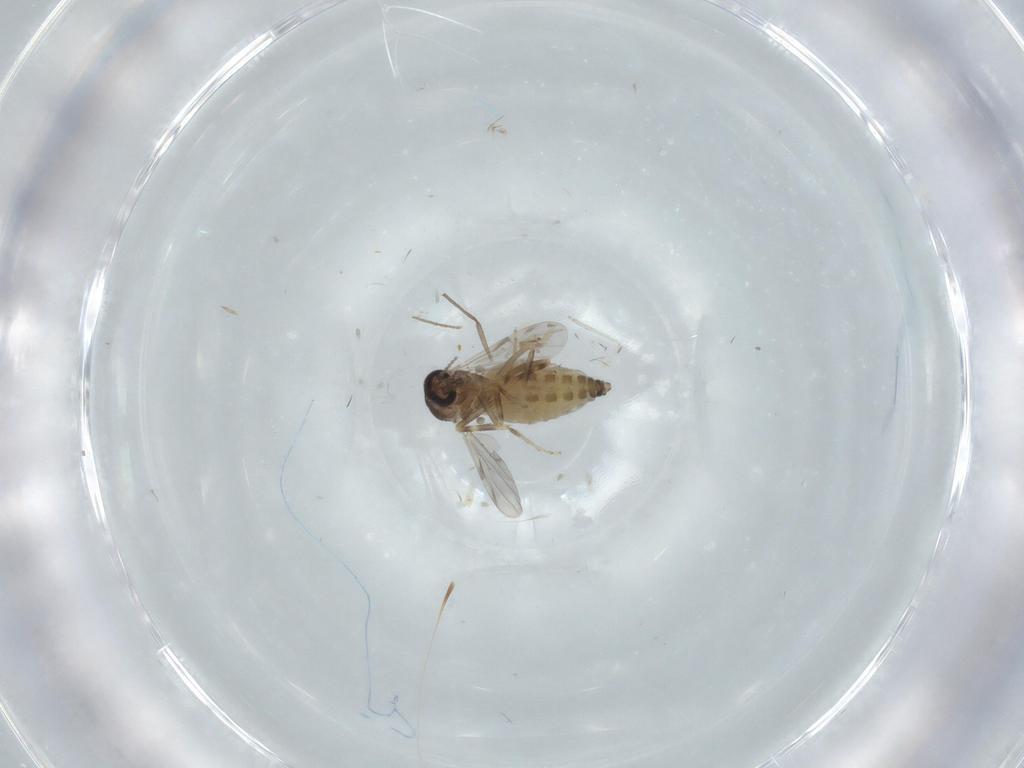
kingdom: Animalia
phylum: Arthropoda
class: Insecta
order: Diptera
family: Ceratopogonidae
